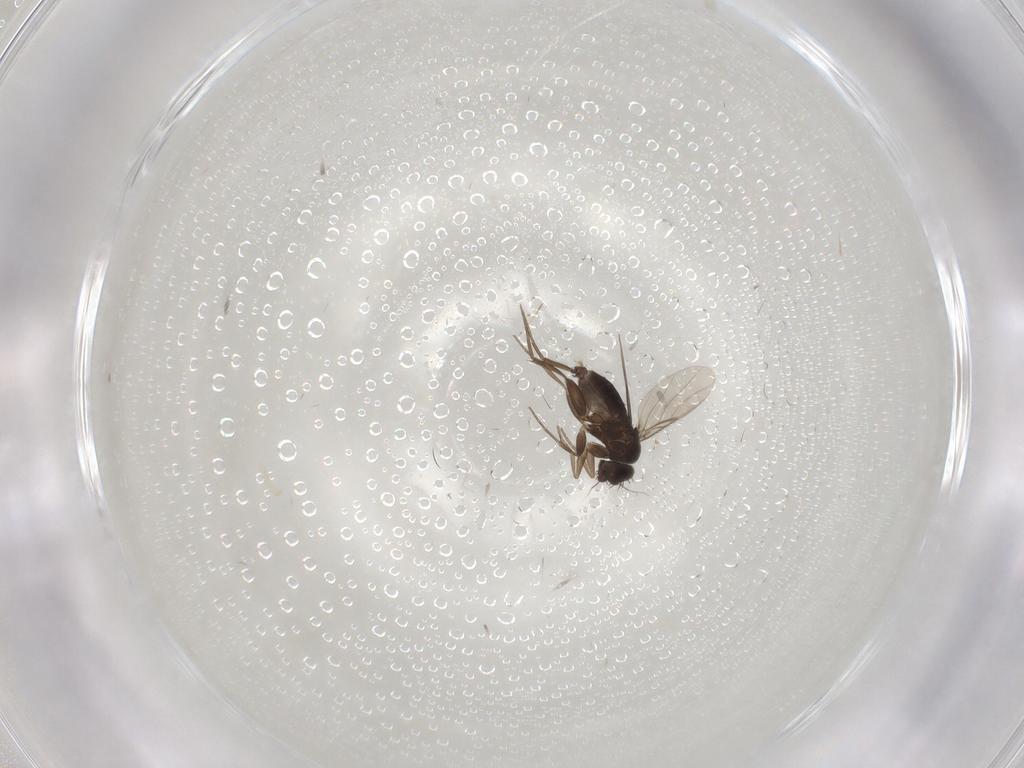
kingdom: Animalia
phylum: Arthropoda
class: Insecta
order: Diptera
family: Phoridae
